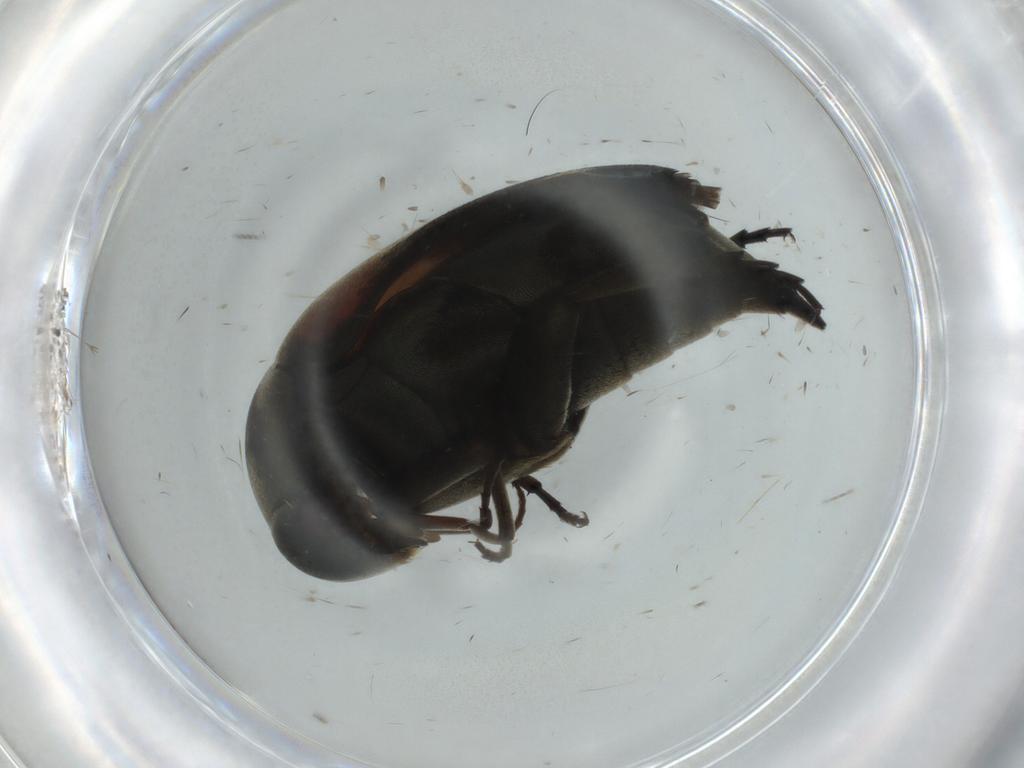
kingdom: Animalia
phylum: Arthropoda
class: Insecta
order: Coleoptera
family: Mordellidae
